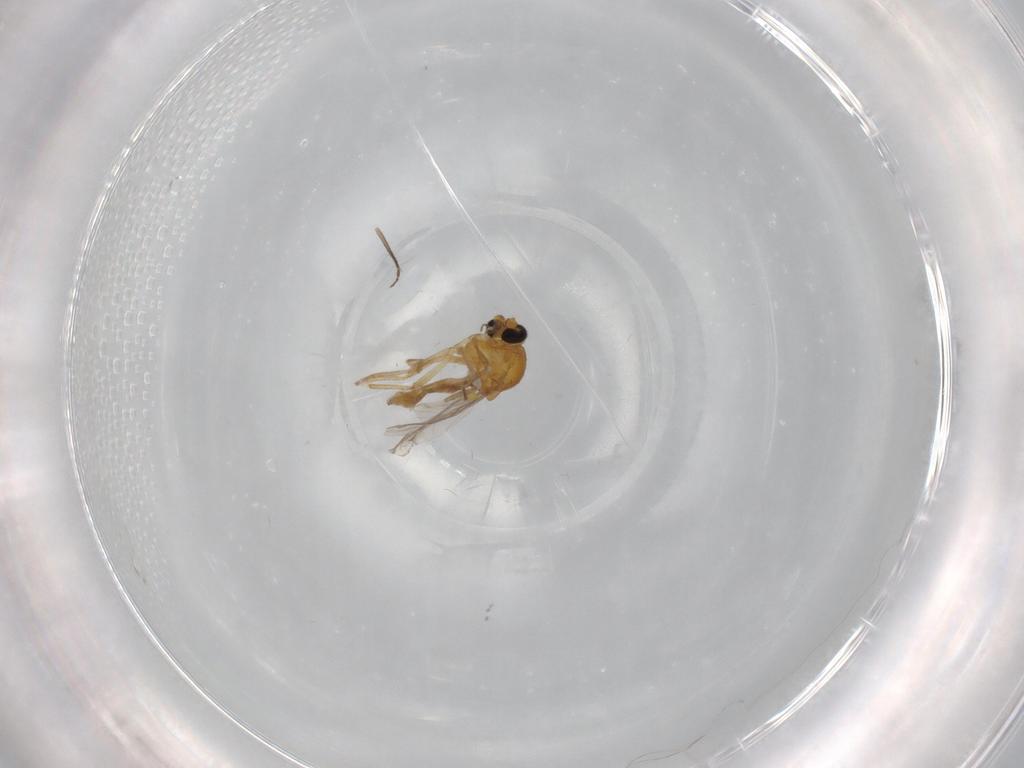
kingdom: Animalia
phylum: Arthropoda
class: Insecta
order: Diptera
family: Ceratopogonidae
